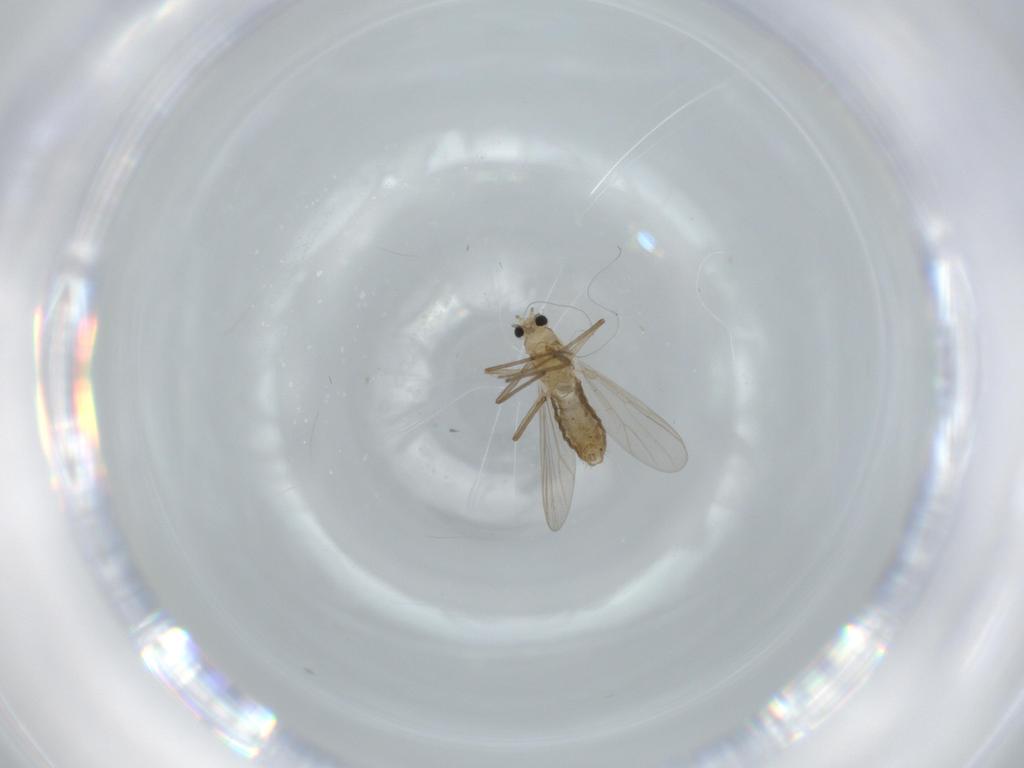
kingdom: Animalia
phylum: Arthropoda
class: Insecta
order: Diptera
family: Chironomidae
